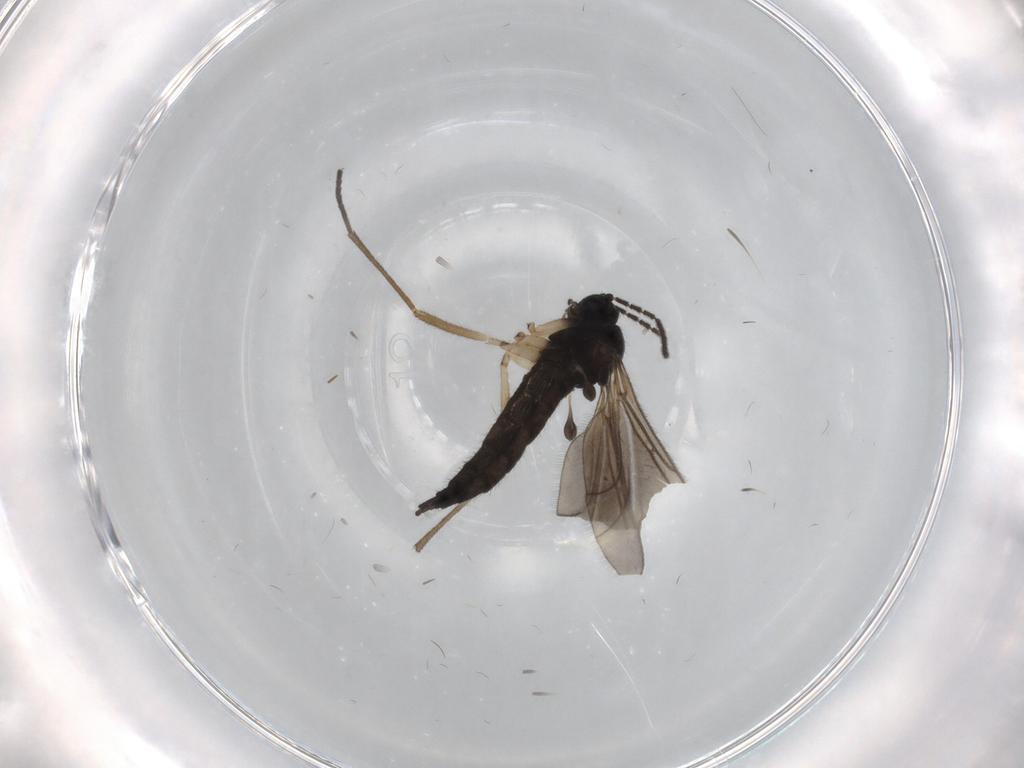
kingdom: Animalia
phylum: Arthropoda
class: Insecta
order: Diptera
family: Sciaridae
